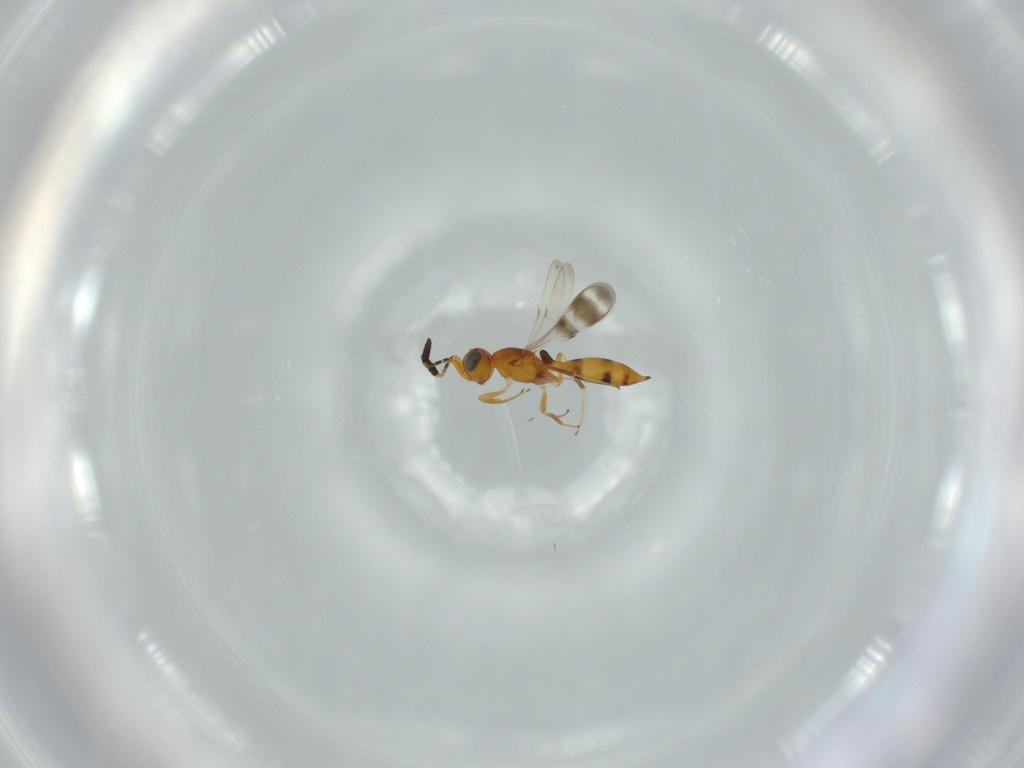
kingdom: Animalia
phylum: Arthropoda
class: Insecta
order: Hymenoptera
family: Scelionidae
